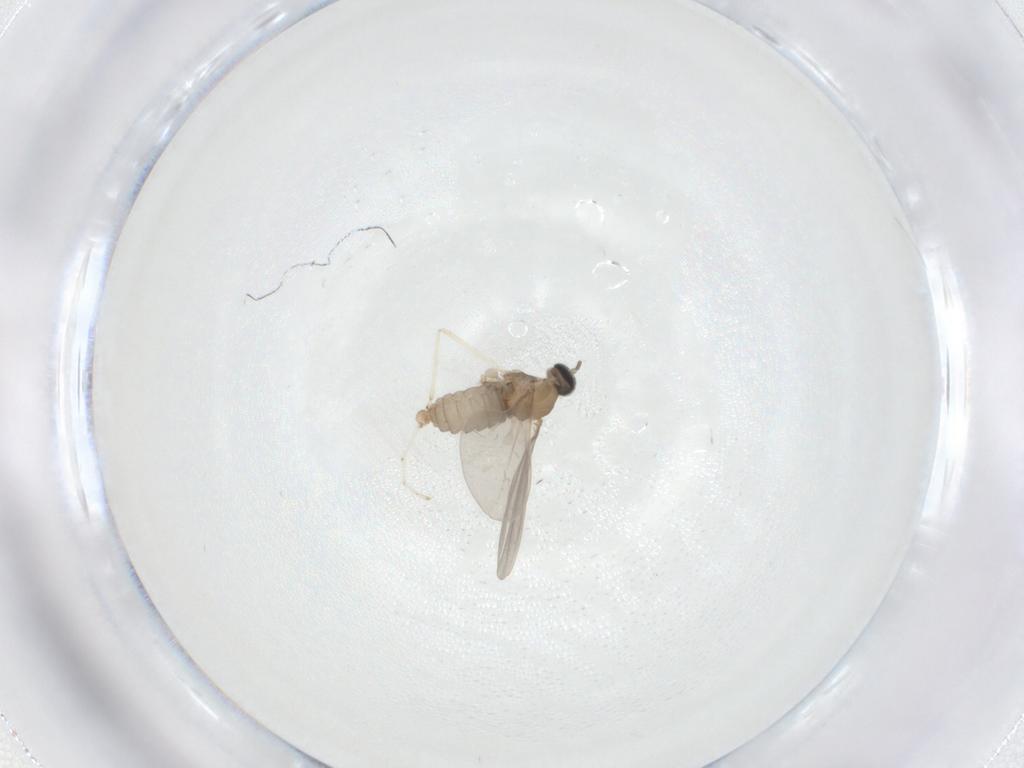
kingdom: Animalia
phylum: Arthropoda
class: Insecta
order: Diptera
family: Cecidomyiidae
